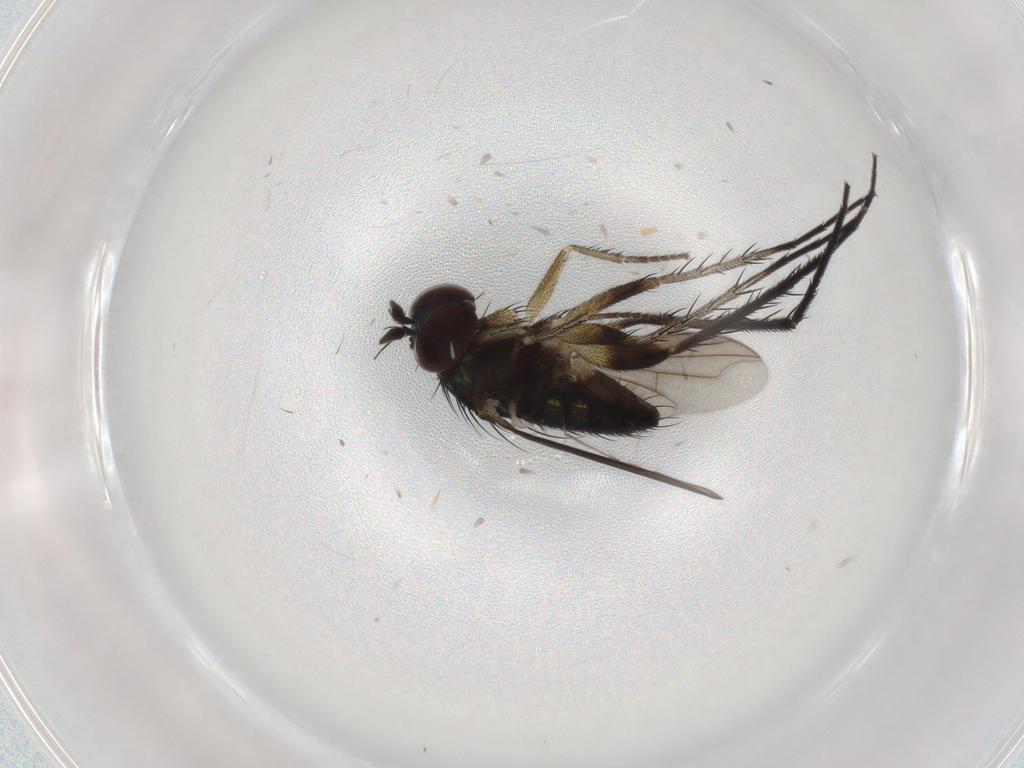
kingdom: Animalia
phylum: Arthropoda
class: Insecta
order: Diptera
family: Dolichopodidae
